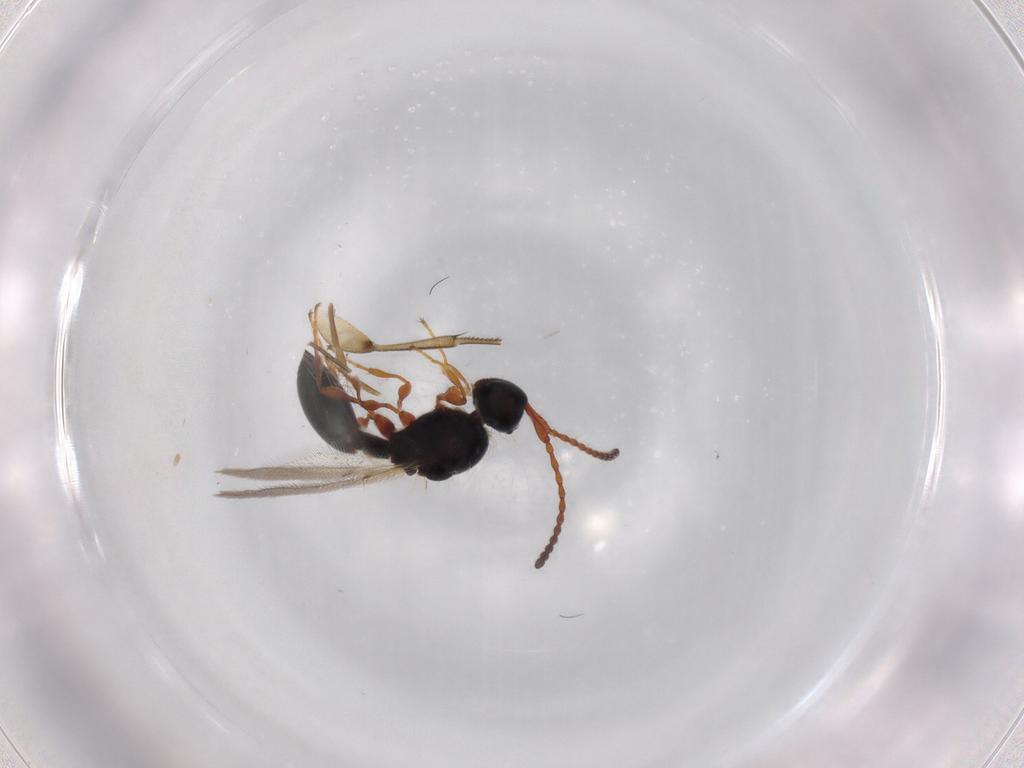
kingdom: Animalia
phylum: Arthropoda
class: Insecta
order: Hymenoptera
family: Diapriidae
